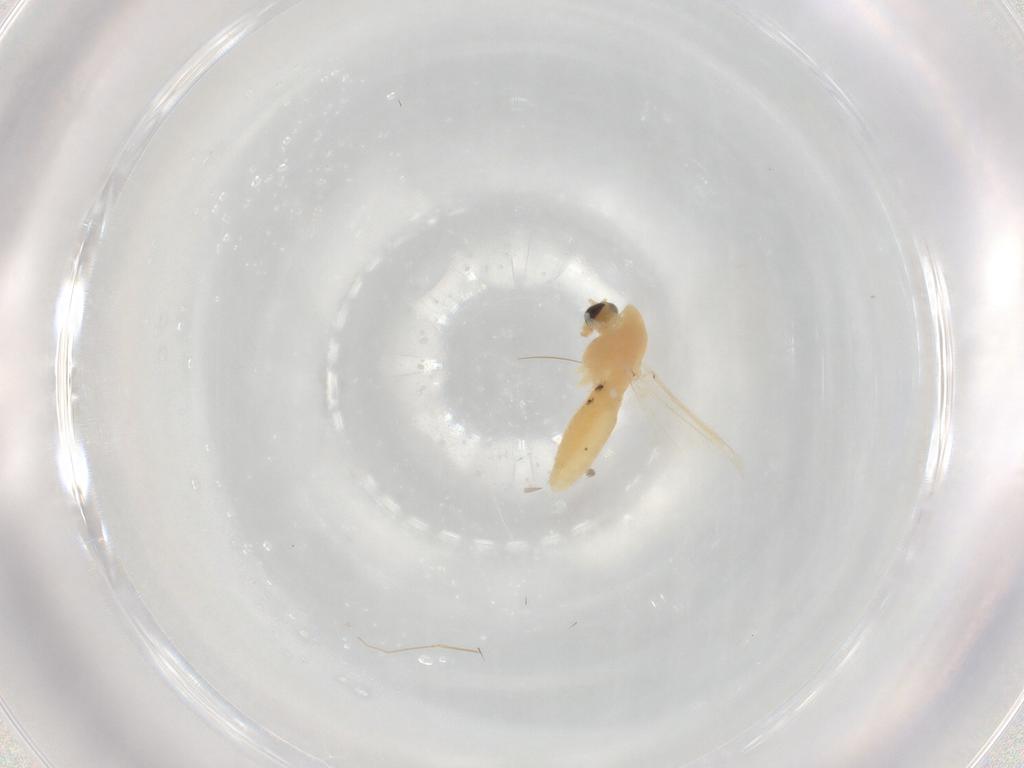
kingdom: Animalia
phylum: Arthropoda
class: Insecta
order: Diptera
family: Chironomidae
